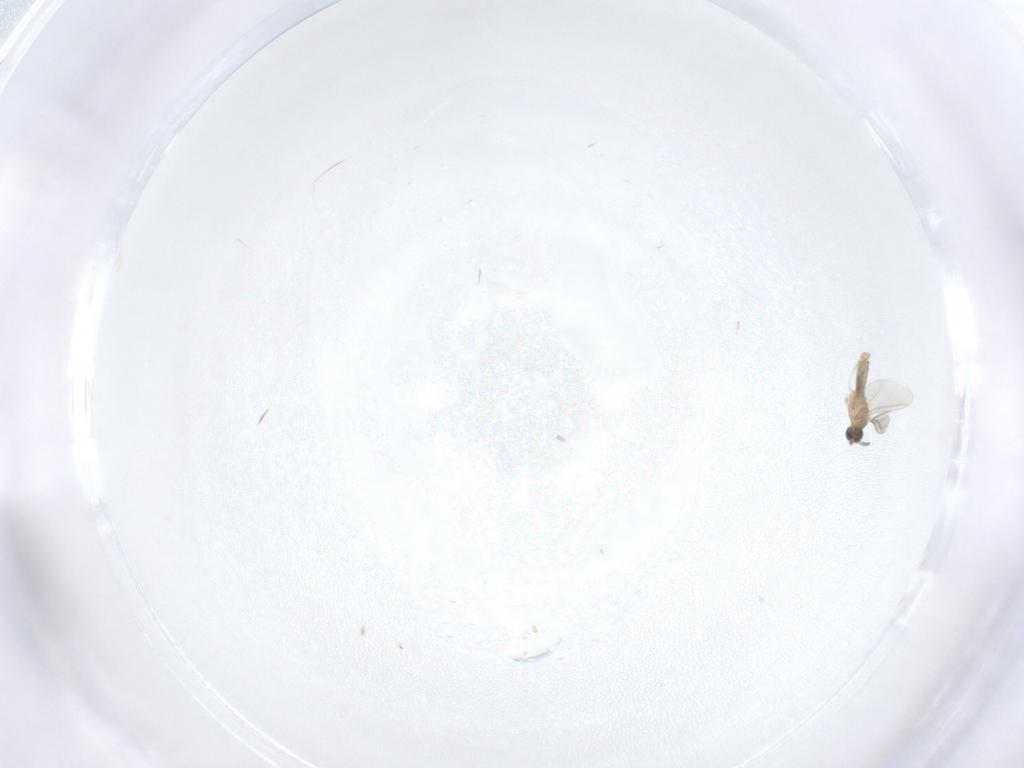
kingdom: Animalia
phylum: Arthropoda
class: Insecta
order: Diptera
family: Cecidomyiidae
